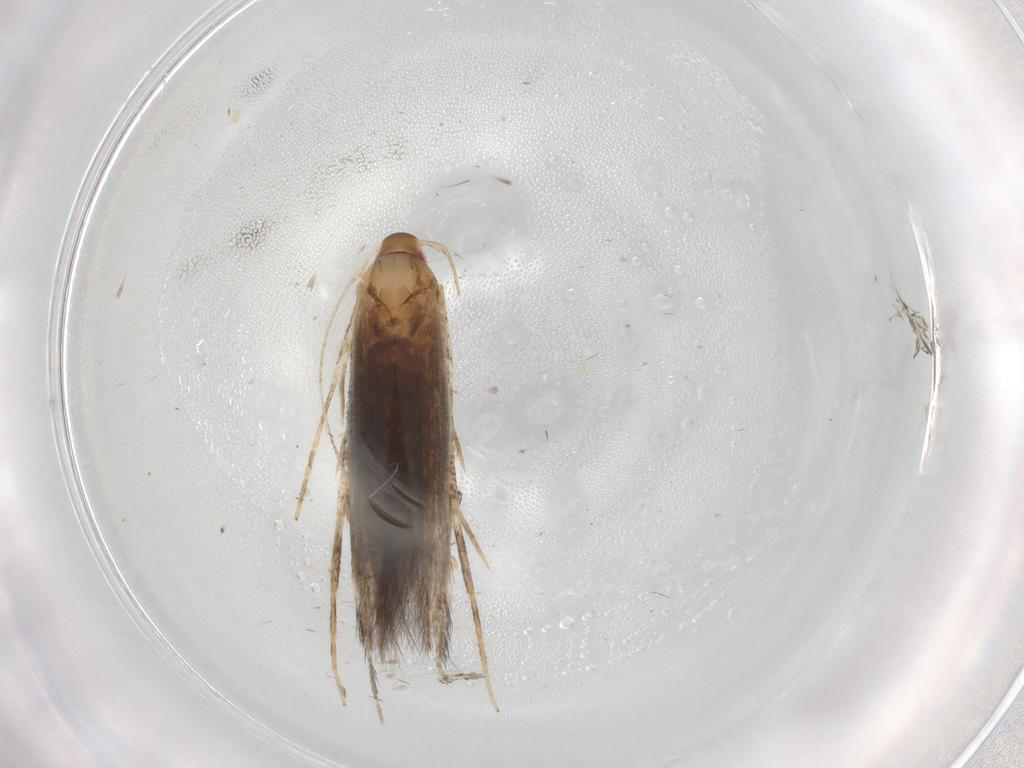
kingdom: Animalia
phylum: Arthropoda
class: Insecta
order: Lepidoptera
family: Cosmopterigidae
